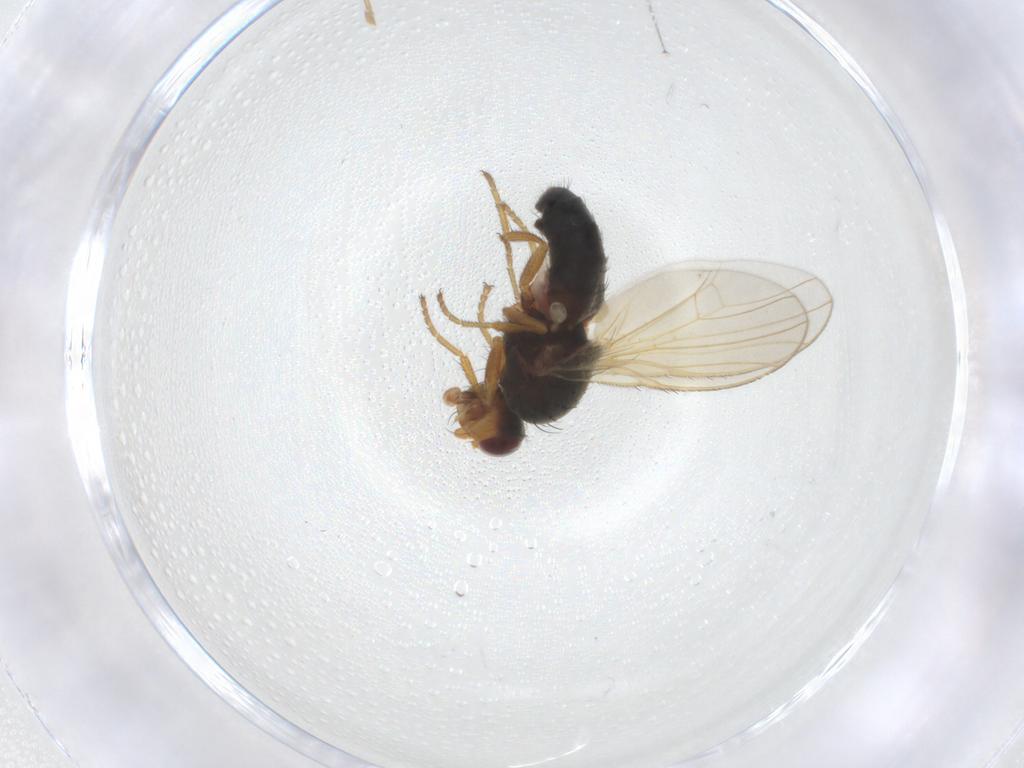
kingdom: Animalia
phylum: Arthropoda
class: Insecta
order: Diptera
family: Heleomyzidae
